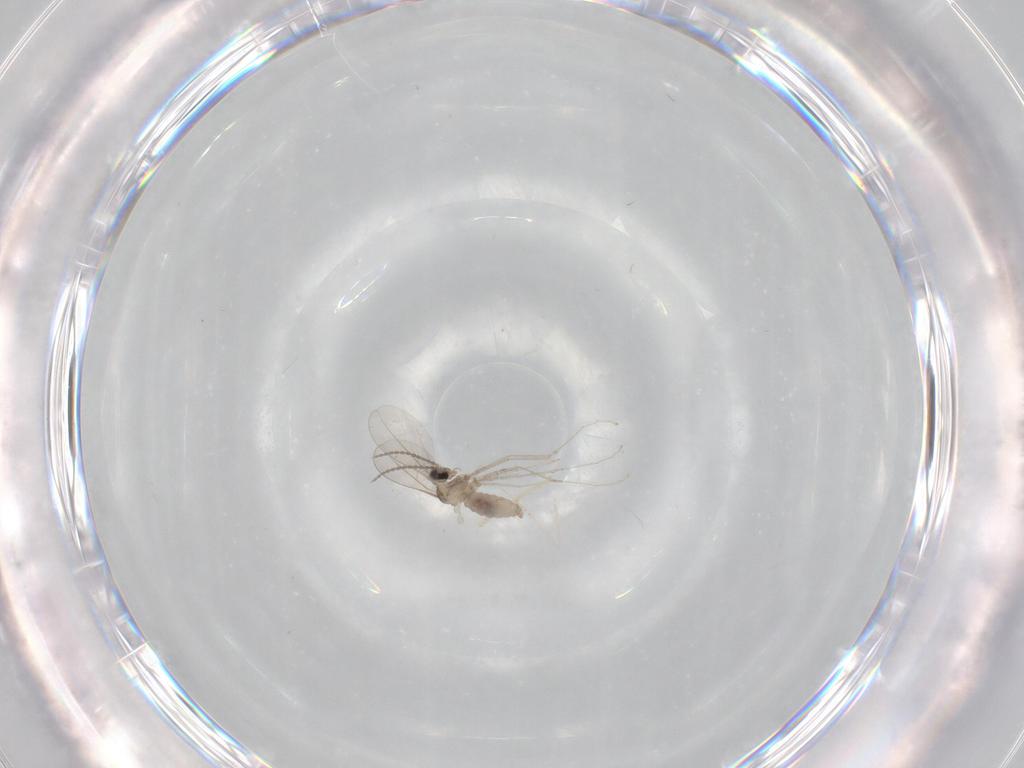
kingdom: Animalia
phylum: Arthropoda
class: Insecta
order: Diptera
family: Cecidomyiidae
